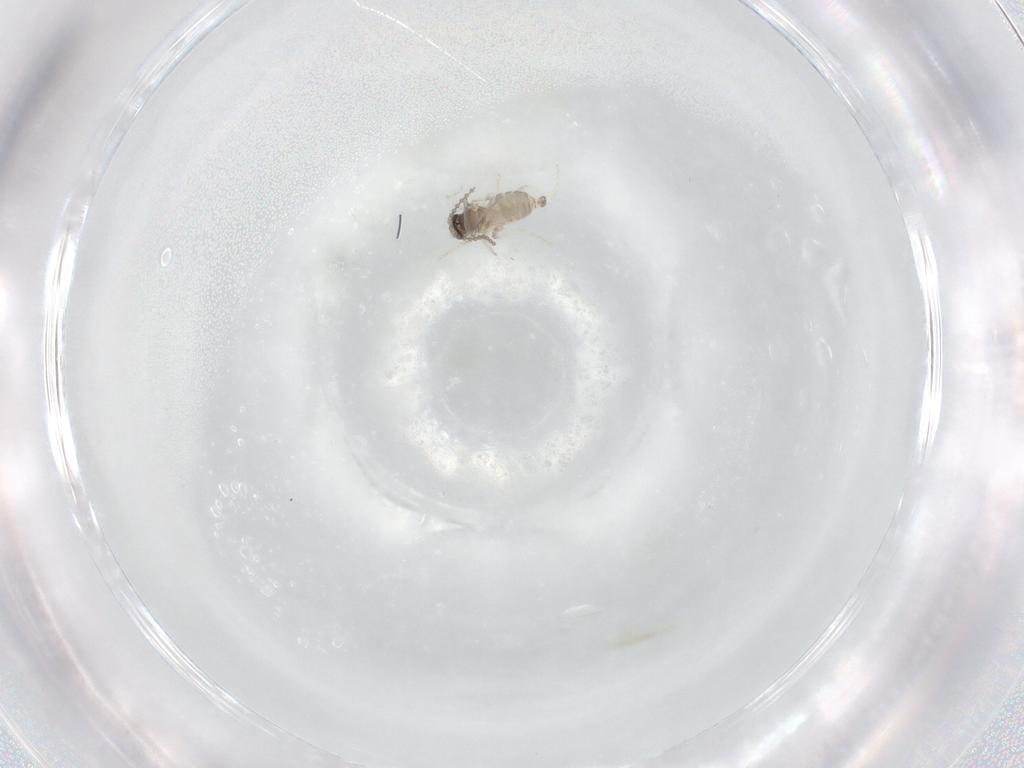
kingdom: Animalia
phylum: Arthropoda
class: Insecta
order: Diptera
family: Cecidomyiidae
